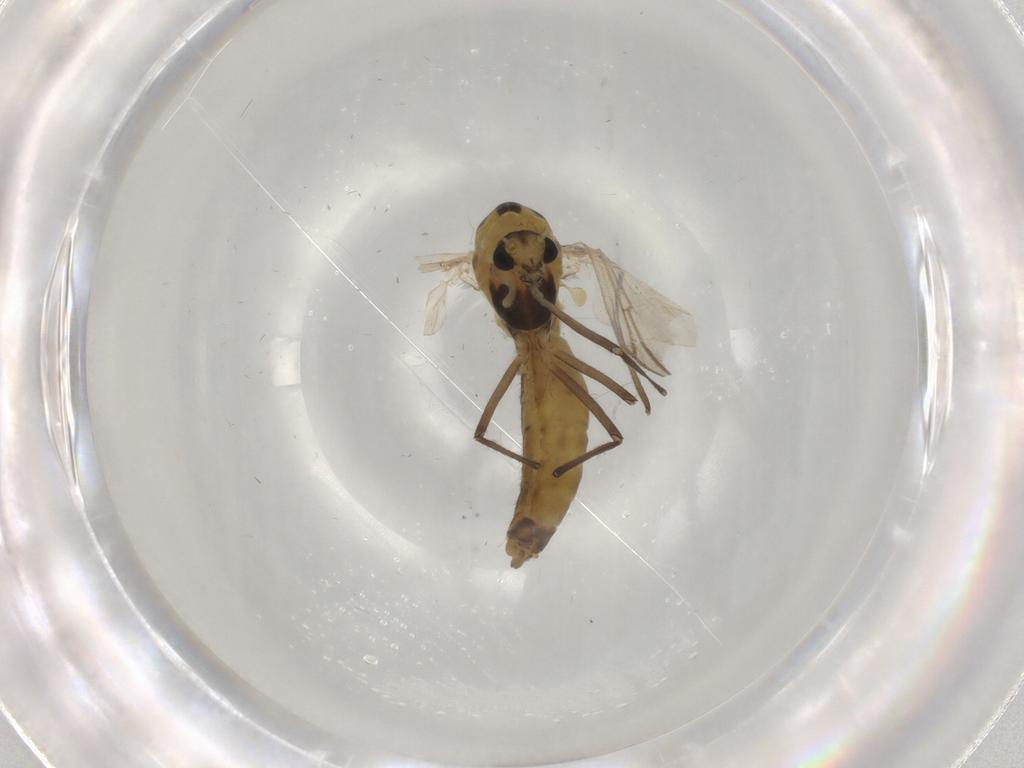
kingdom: Animalia
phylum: Arthropoda
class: Insecta
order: Diptera
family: Chironomidae
